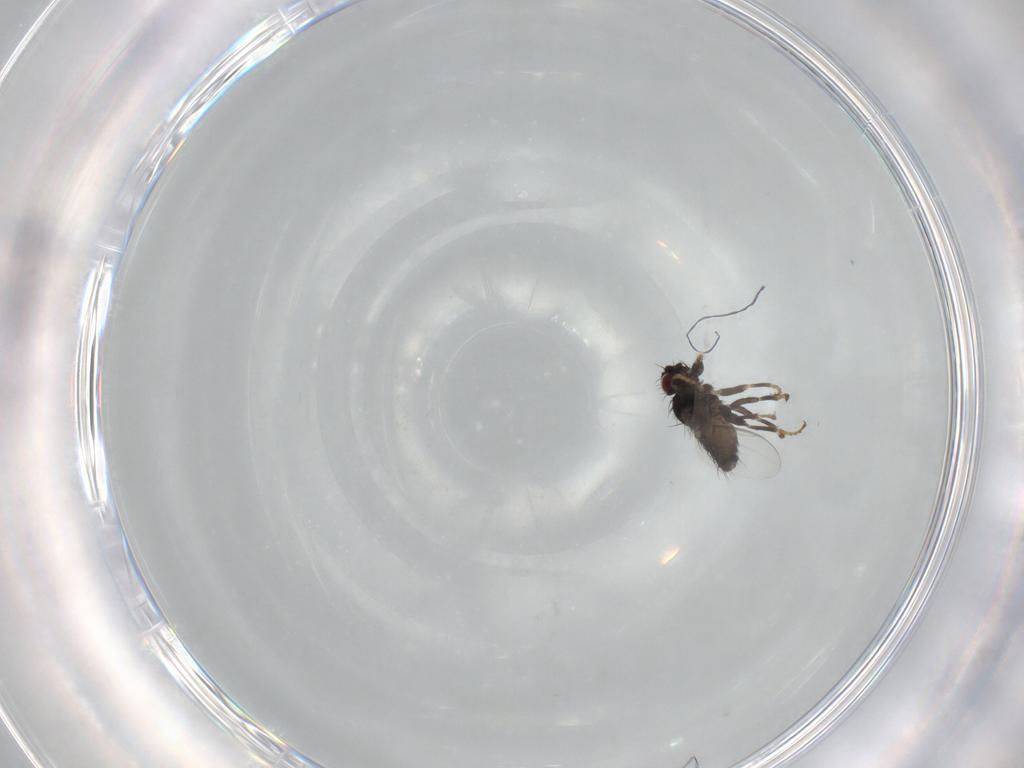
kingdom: Animalia
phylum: Arthropoda
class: Insecta
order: Diptera
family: Carnidae
